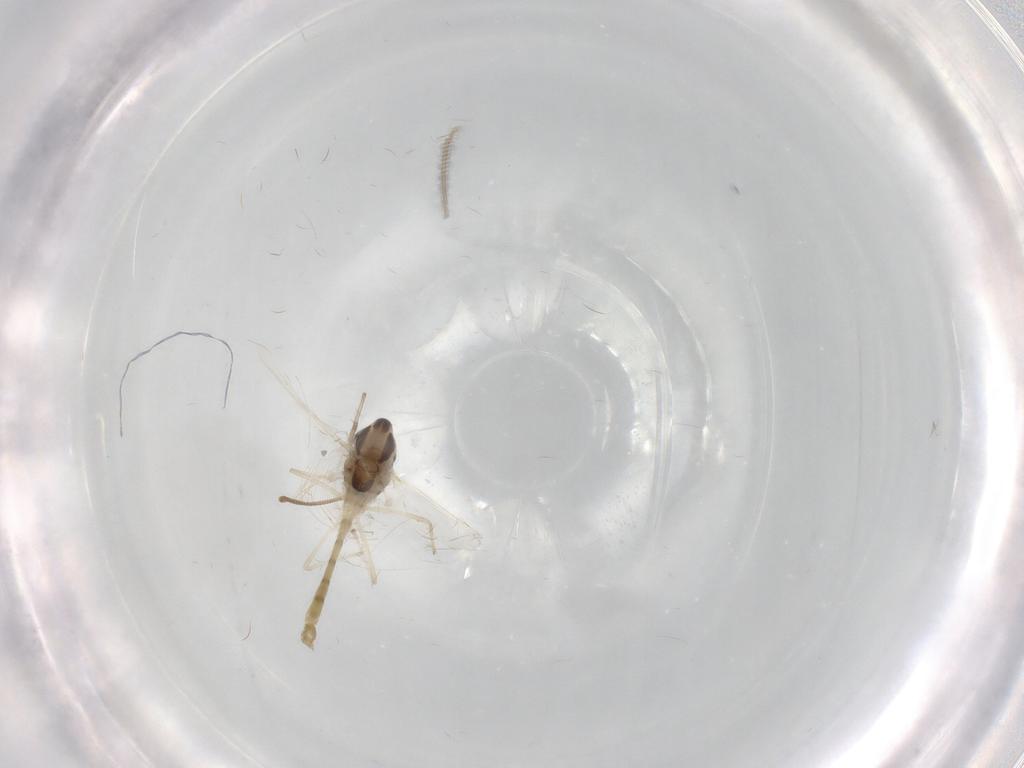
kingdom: Animalia
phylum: Arthropoda
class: Insecta
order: Diptera
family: Chironomidae
